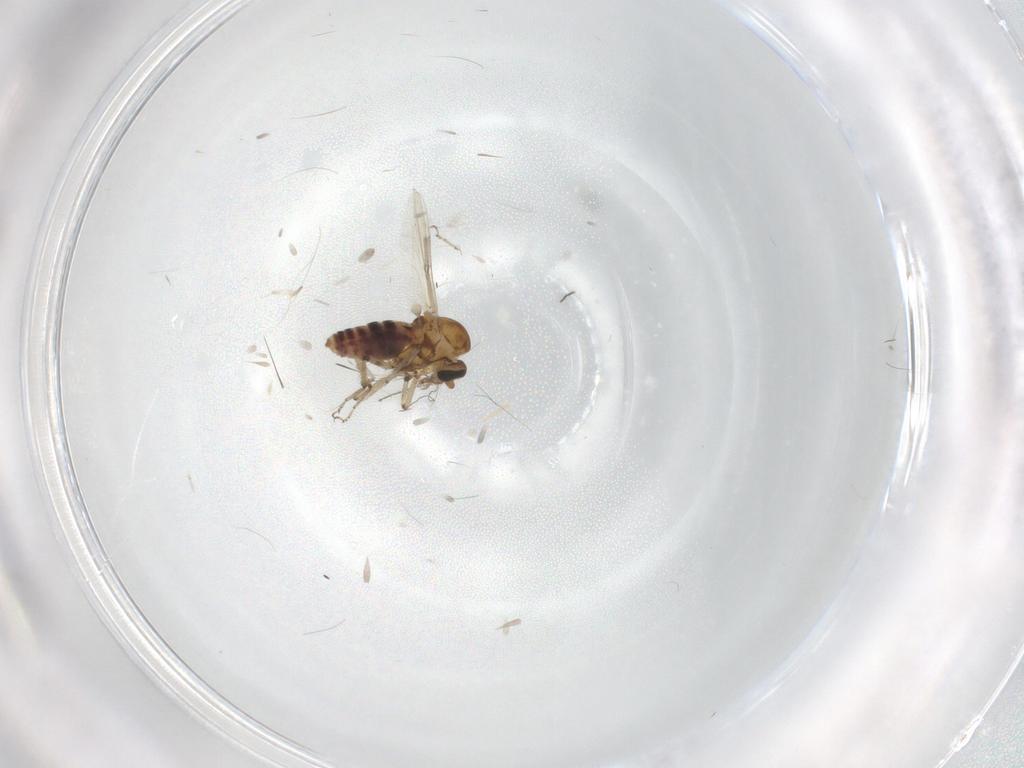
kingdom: Animalia
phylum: Arthropoda
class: Insecta
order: Diptera
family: Ceratopogonidae
